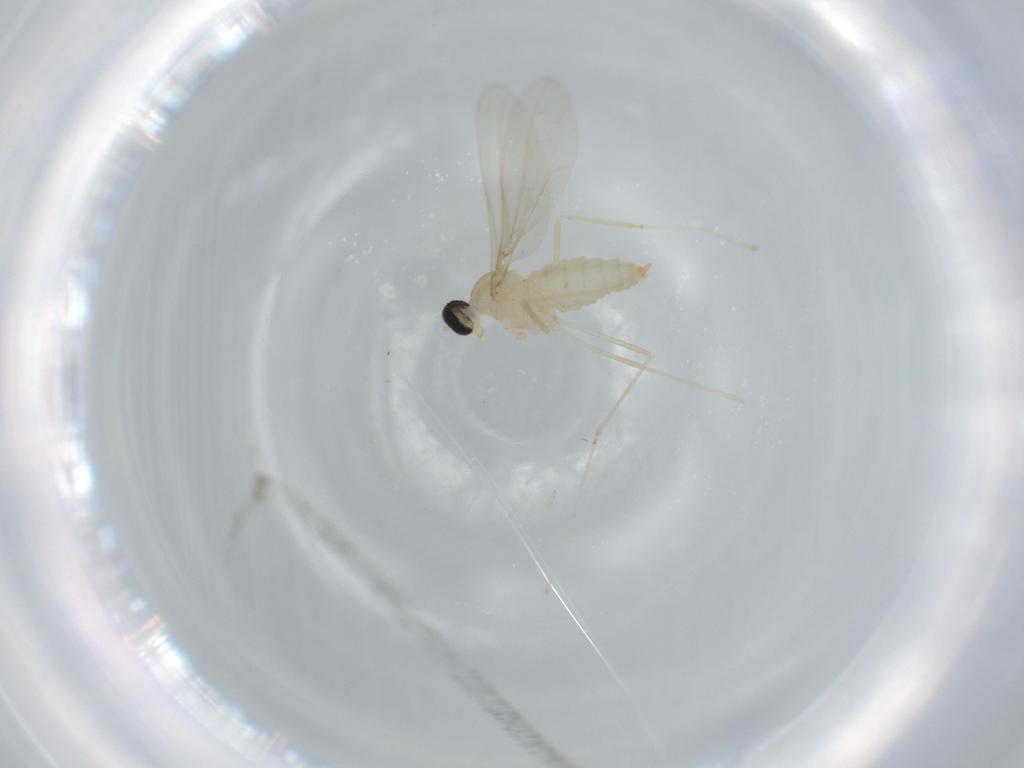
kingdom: Animalia
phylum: Arthropoda
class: Insecta
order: Diptera
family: Cecidomyiidae
